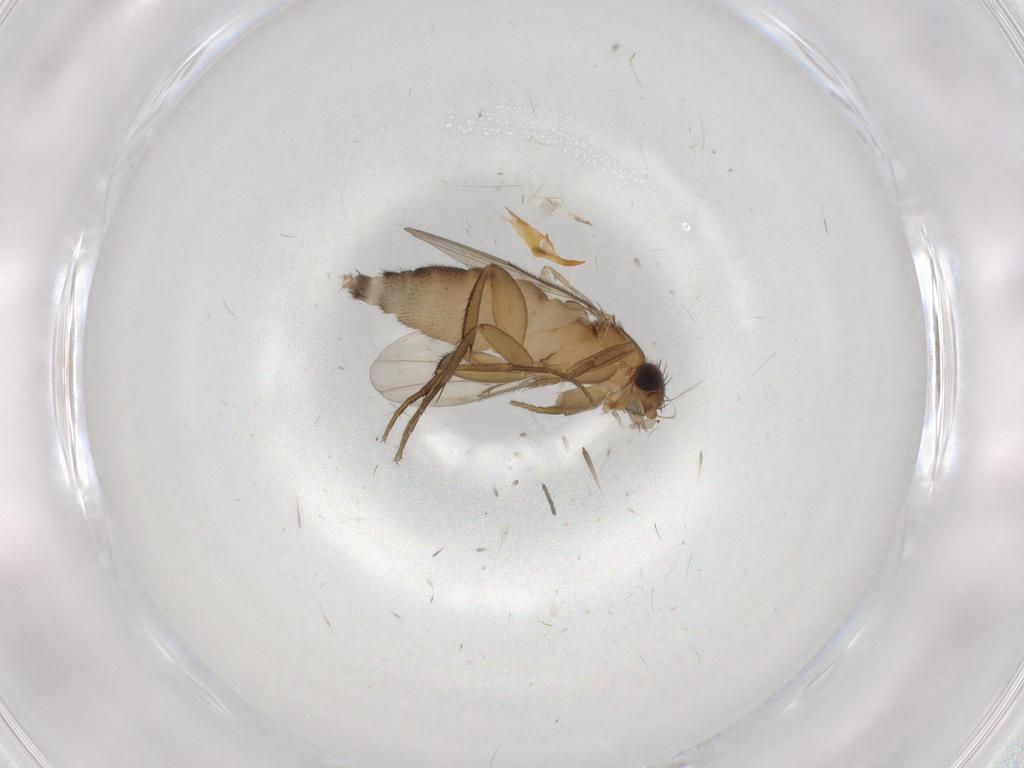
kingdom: Animalia
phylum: Arthropoda
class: Insecta
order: Diptera
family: Phoridae
